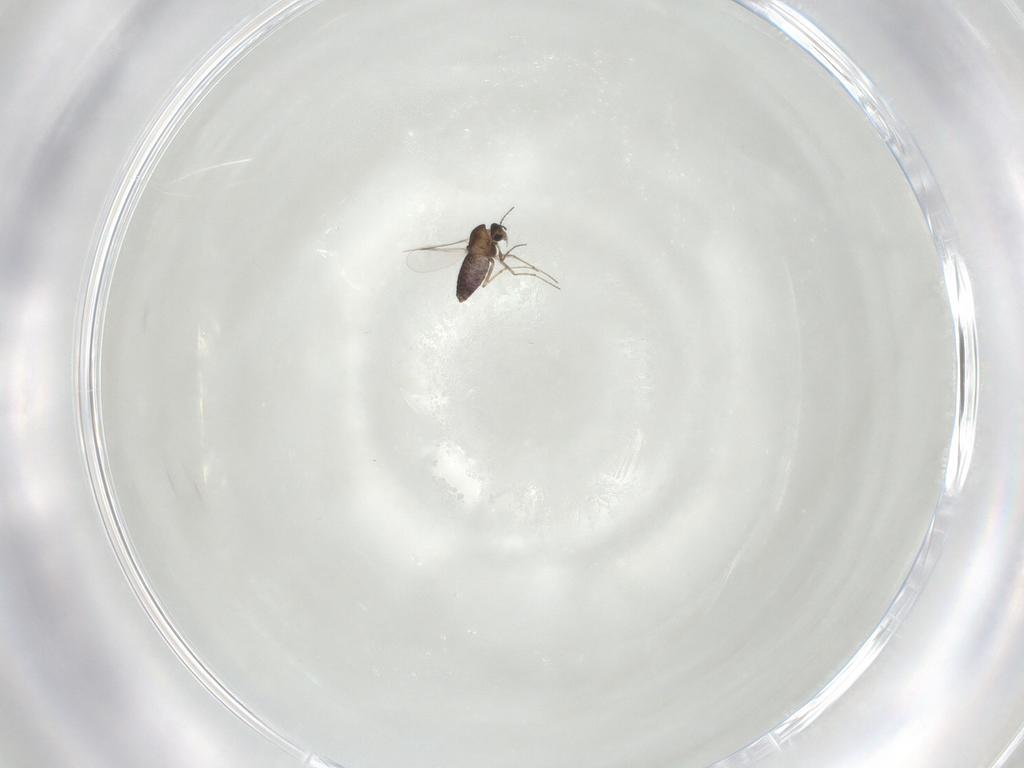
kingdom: Animalia
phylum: Arthropoda
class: Insecta
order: Diptera
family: Chironomidae
